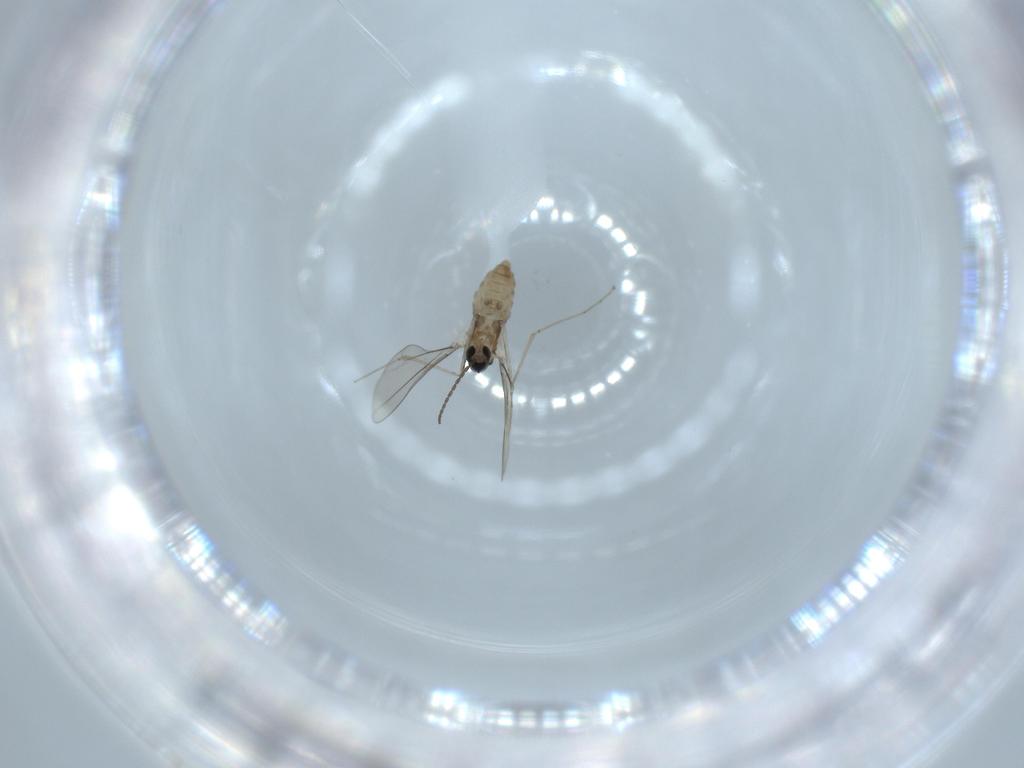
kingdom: Animalia
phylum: Arthropoda
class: Insecta
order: Diptera
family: Cecidomyiidae
